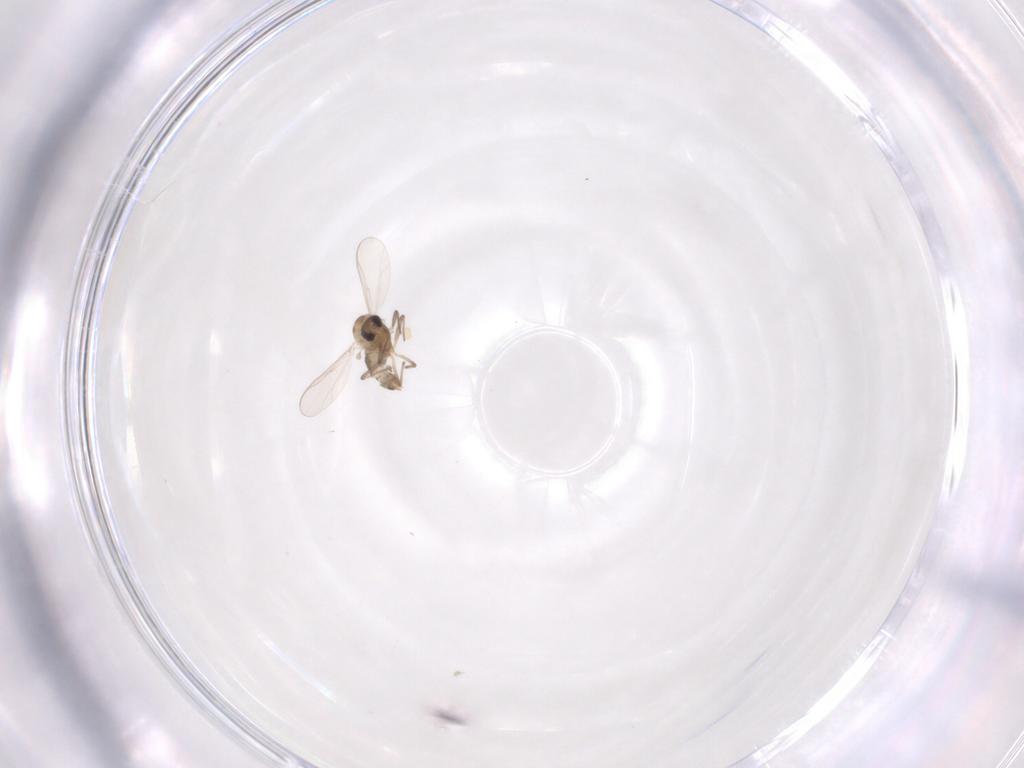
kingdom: Animalia
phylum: Arthropoda
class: Insecta
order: Diptera
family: Chironomidae
